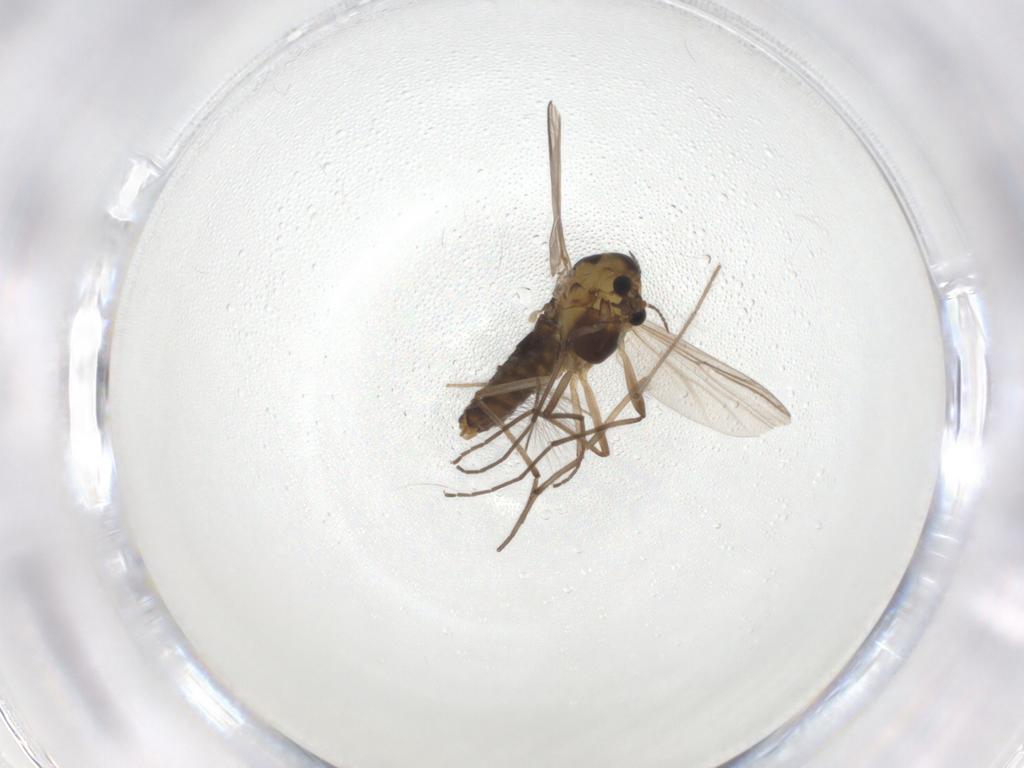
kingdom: Animalia
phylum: Arthropoda
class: Insecta
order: Diptera
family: Chironomidae
